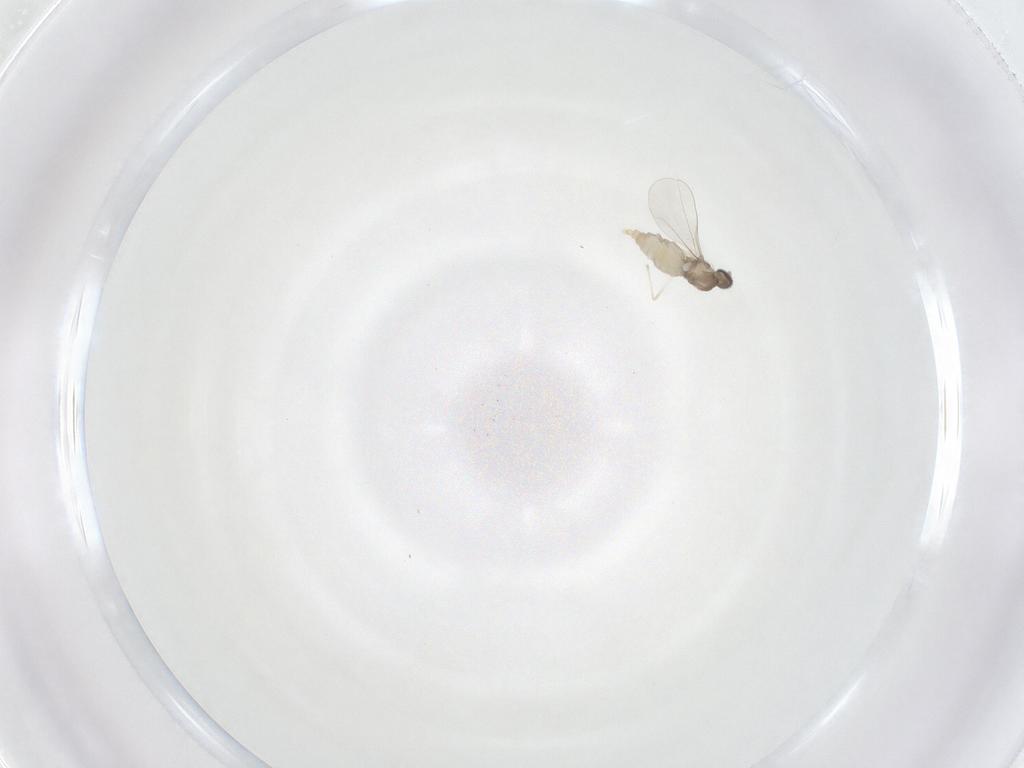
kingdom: Animalia
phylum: Arthropoda
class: Insecta
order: Diptera
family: Cecidomyiidae
